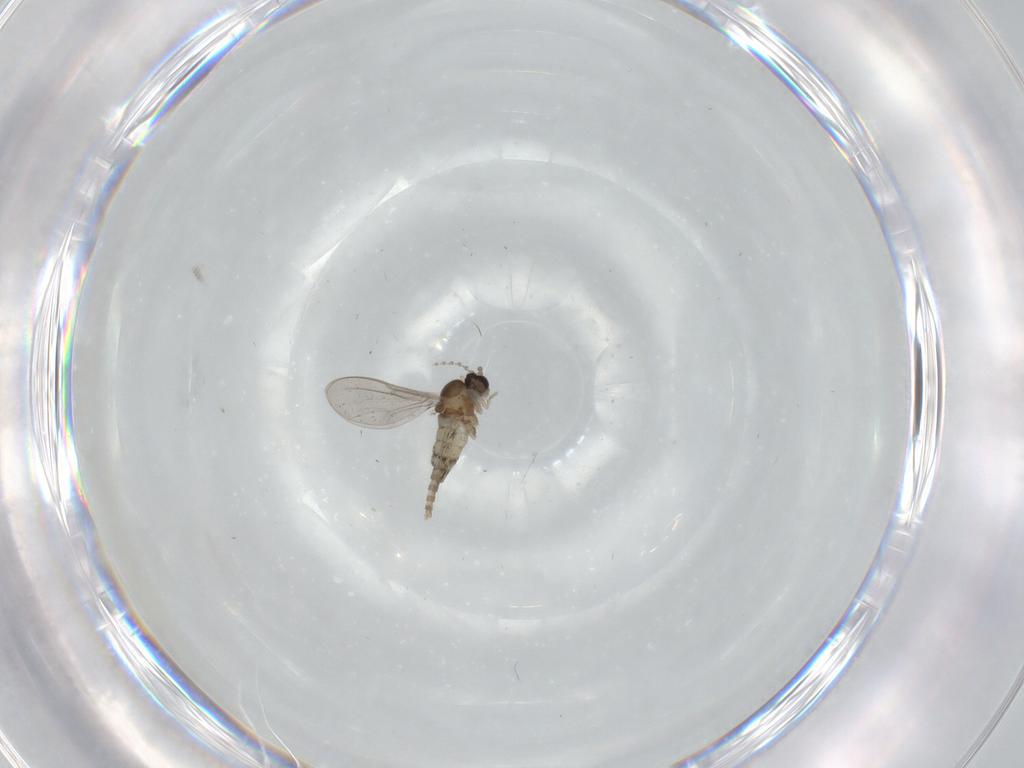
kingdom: Animalia
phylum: Arthropoda
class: Insecta
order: Diptera
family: Cecidomyiidae
